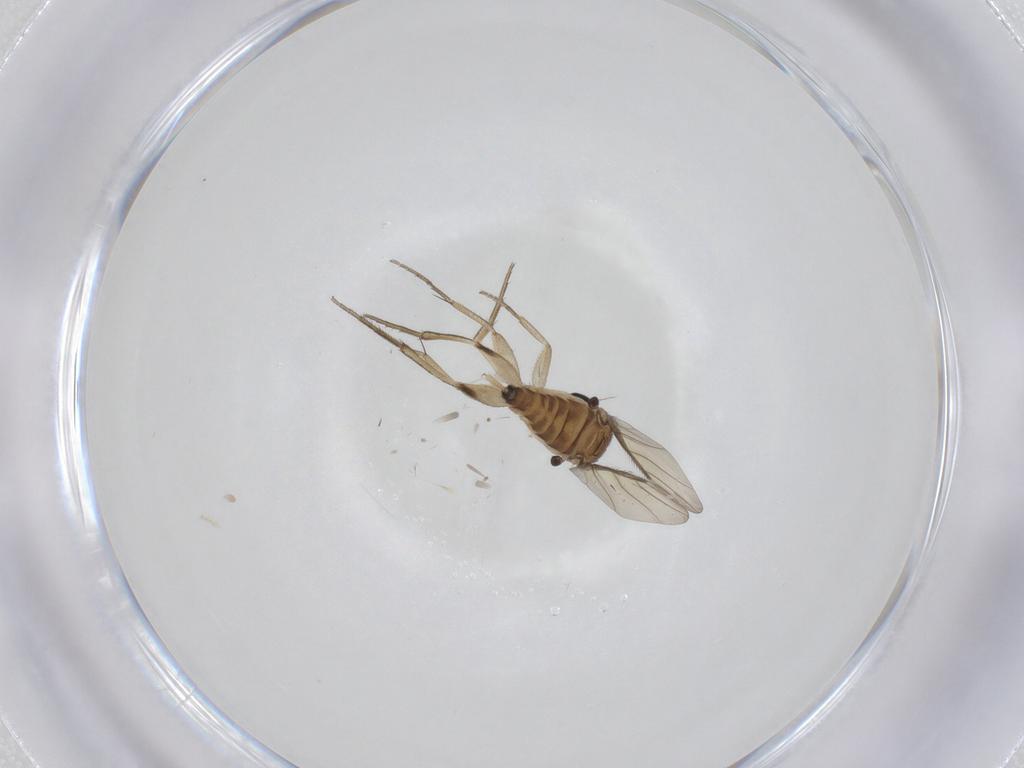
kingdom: Animalia
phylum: Arthropoda
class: Insecta
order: Diptera
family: Phoridae
